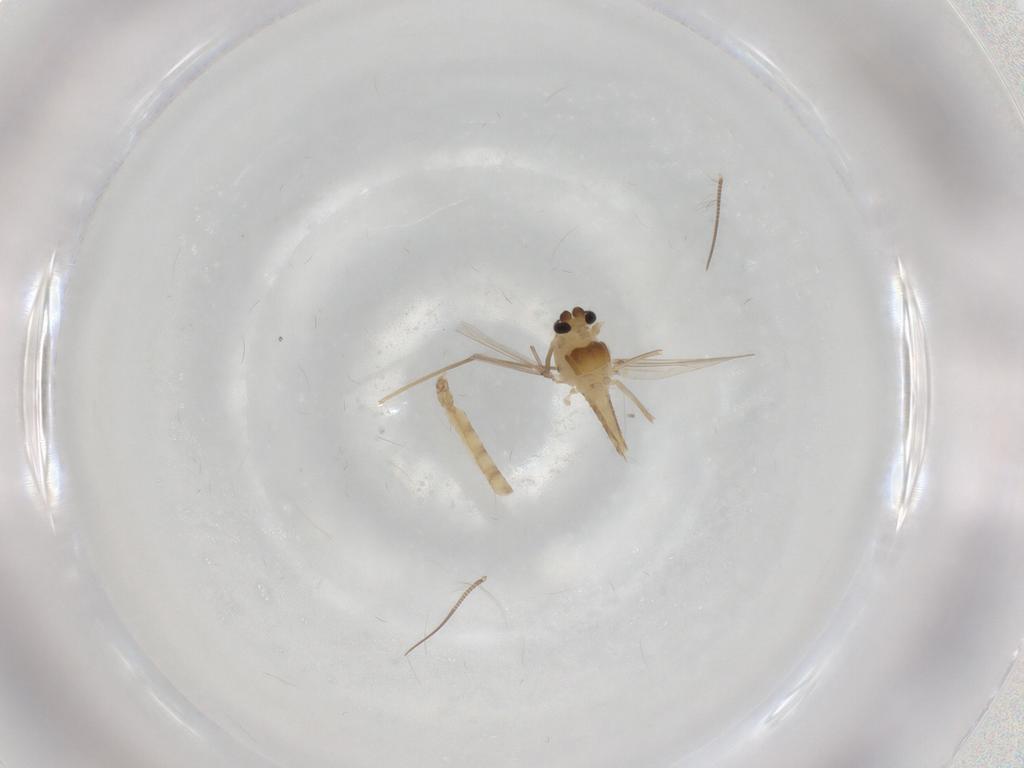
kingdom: Animalia
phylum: Arthropoda
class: Insecta
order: Diptera
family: Chironomidae
